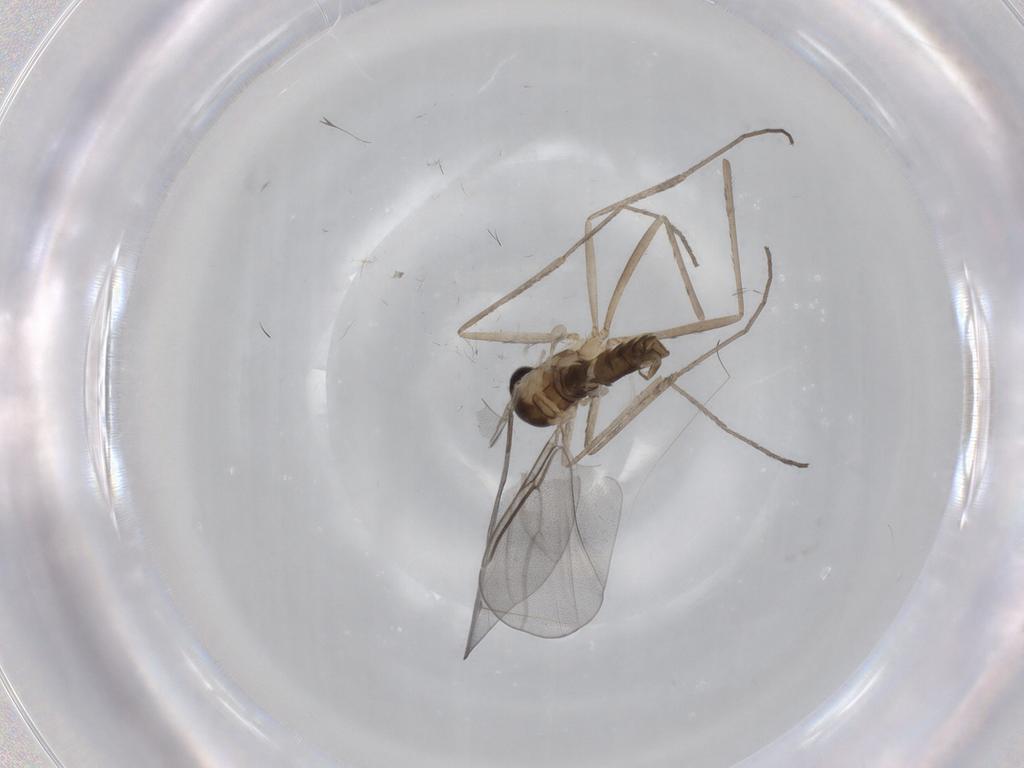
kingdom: Animalia
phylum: Arthropoda
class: Insecta
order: Diptera
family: Cecidomyiidae
